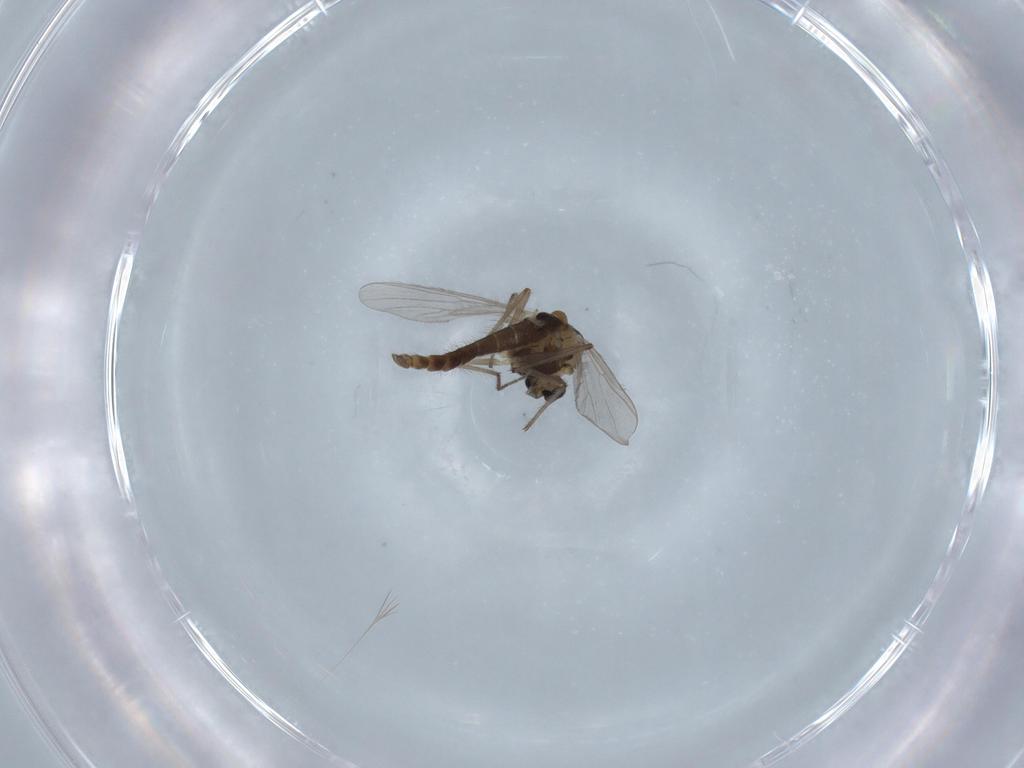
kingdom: Animalia
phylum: Arthropoda
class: Insecta
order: Diptera
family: Chironomidae
